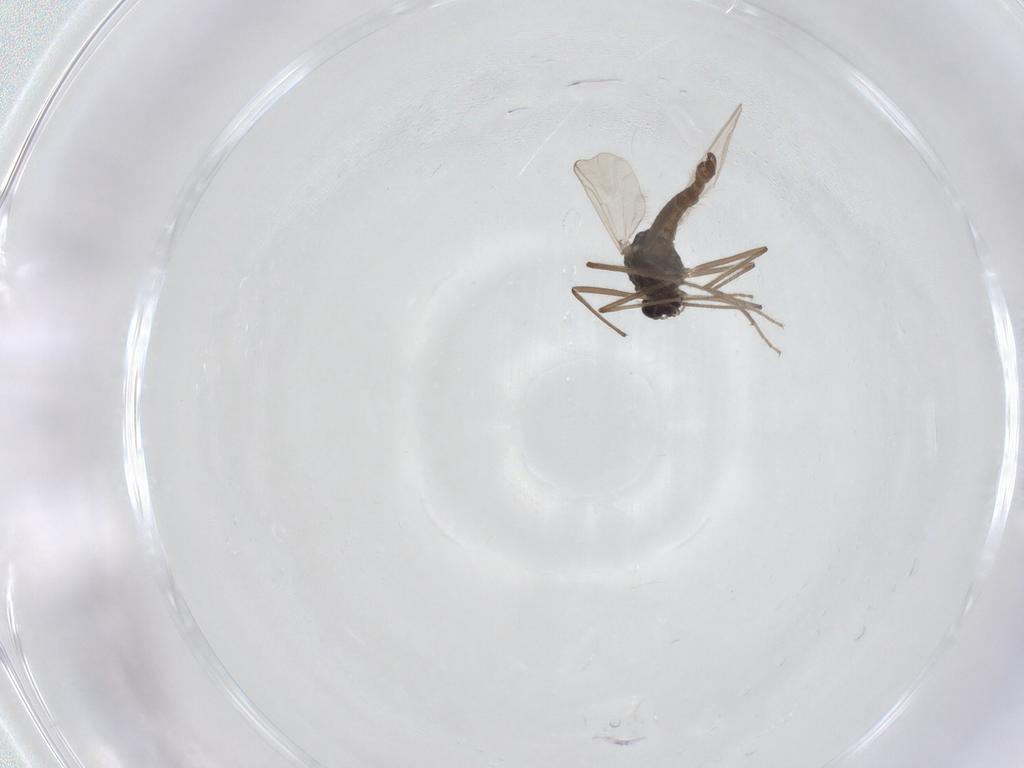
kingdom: Animalia
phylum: Arthropoda
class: Insecta
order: Diptera
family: Chironomidae
